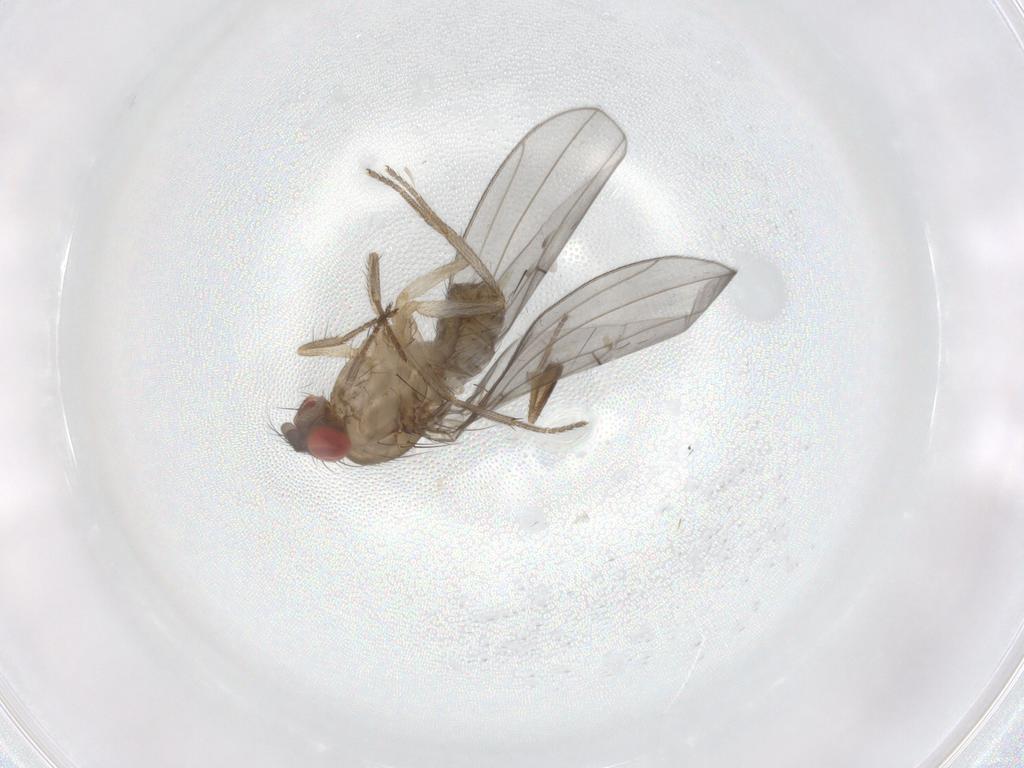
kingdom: Animalia
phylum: Arthropoda
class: Insecta
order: Diptera
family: Drosophilidae
